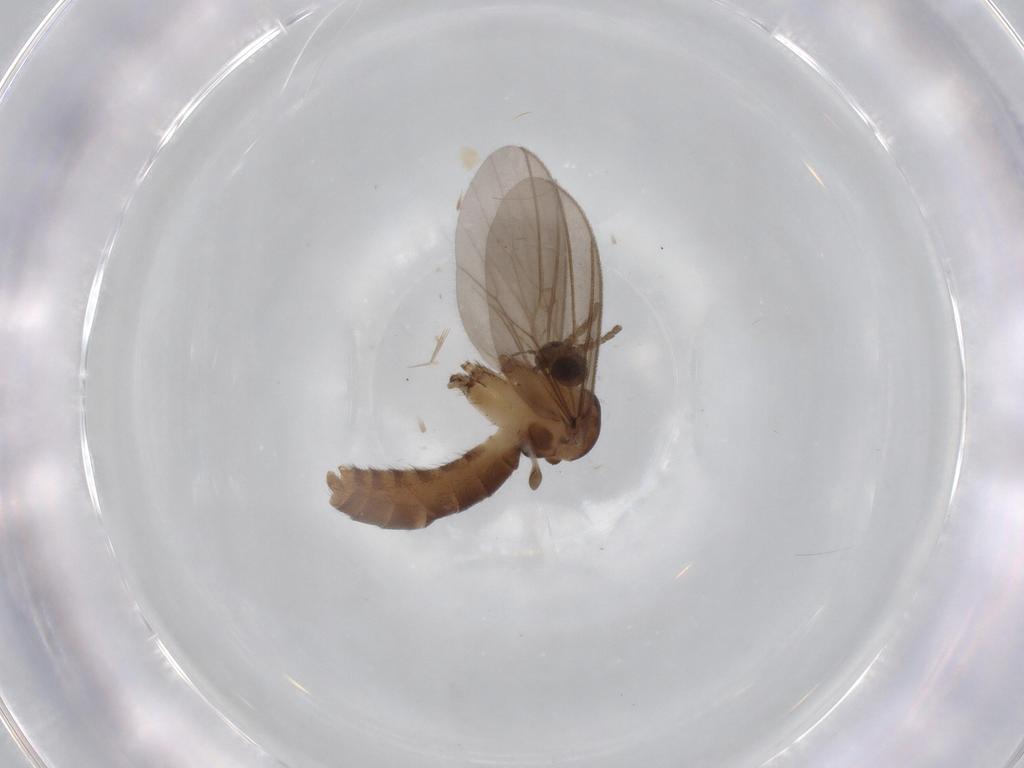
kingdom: Animalia
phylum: Arthropoda
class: Insecta
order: Diptera
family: Mycetophilidae
